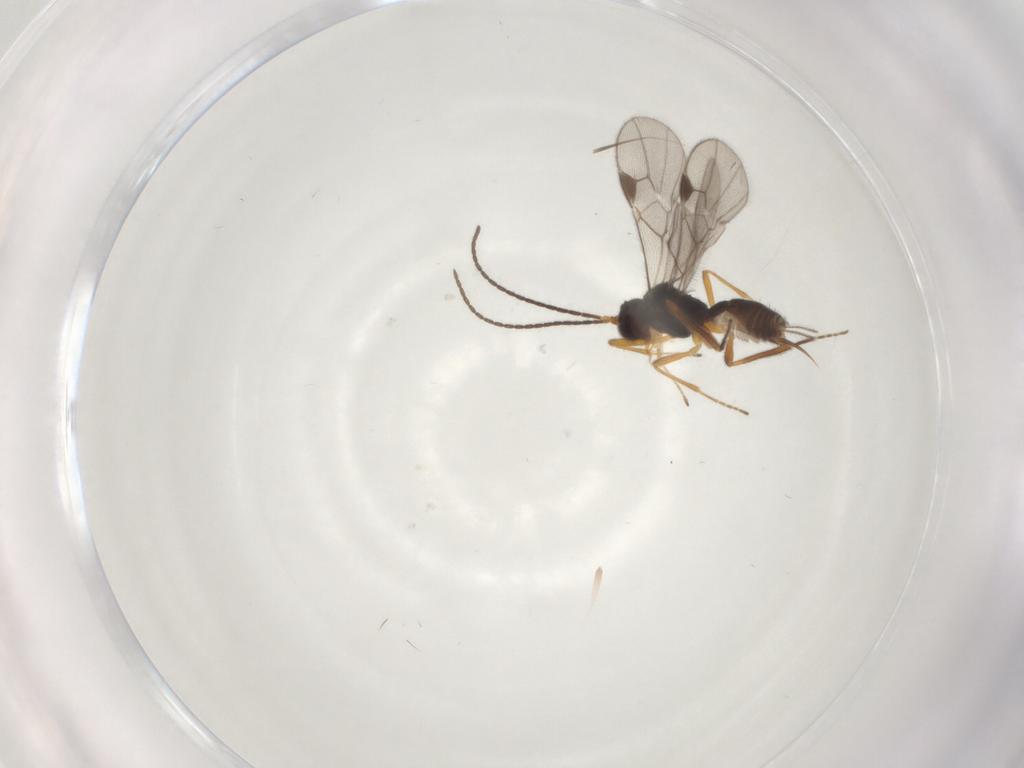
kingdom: Animalia
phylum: Arthropoda
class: Insecta
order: Hymenoptera
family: Braconidae
